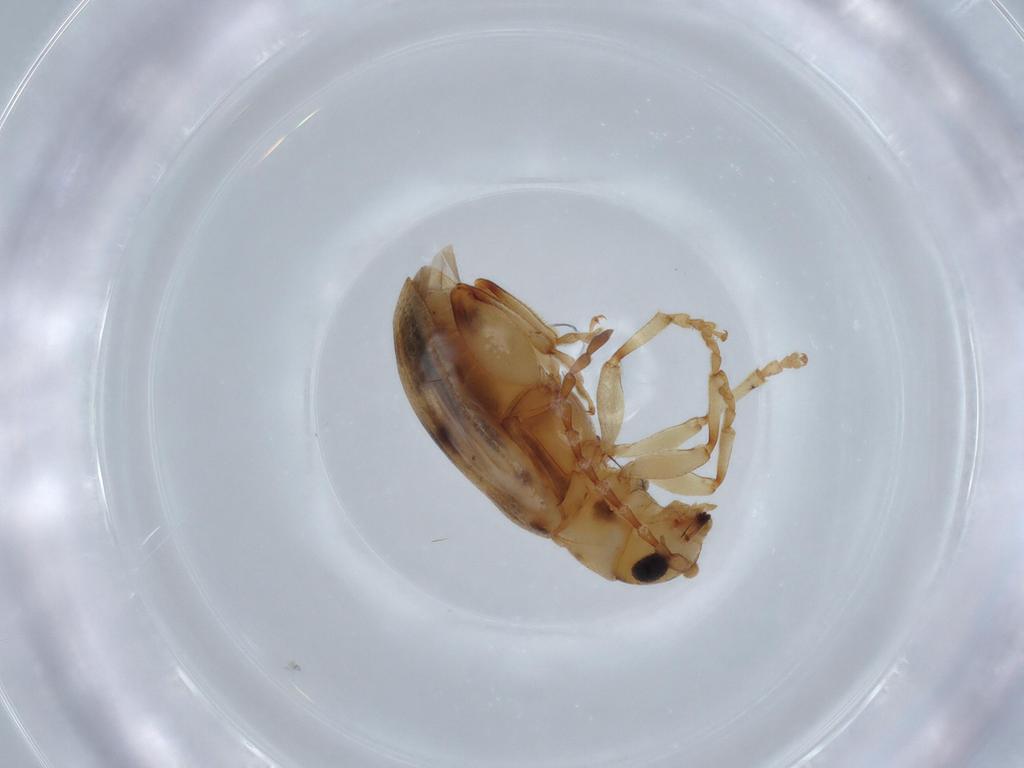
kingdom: Animalia
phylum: Arthropoda
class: Insecta
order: Coleoptera
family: Chrysomelidae
